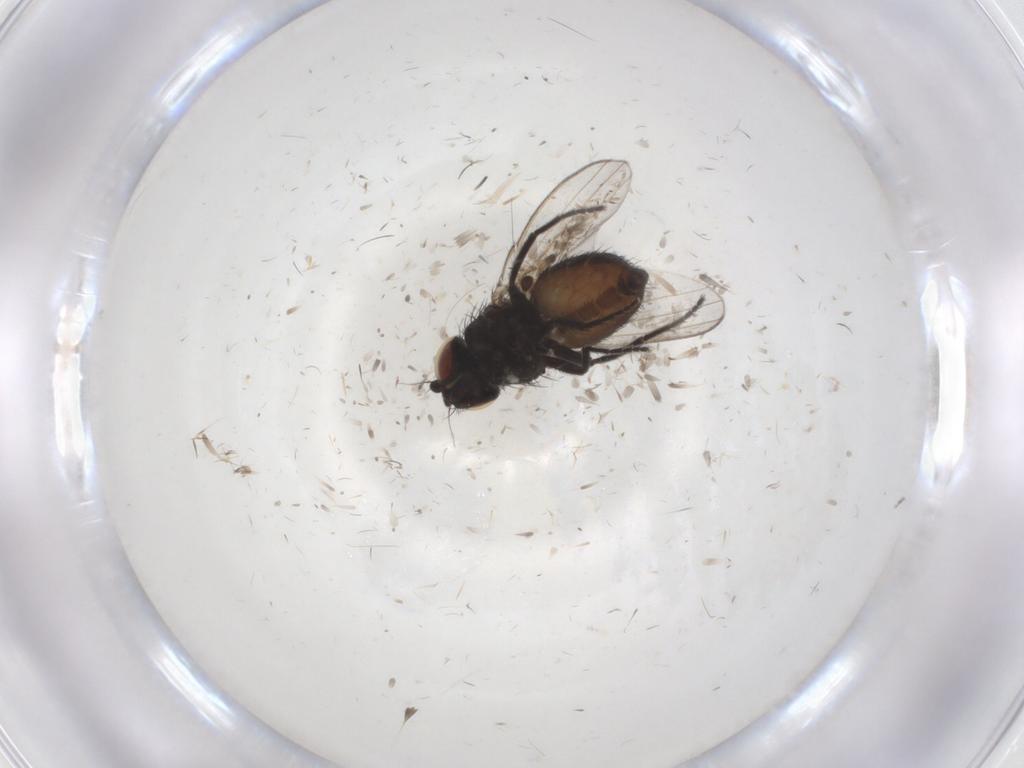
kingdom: Animalia
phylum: Arthropoda
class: Insecta
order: Diptera
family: Milichiidae
